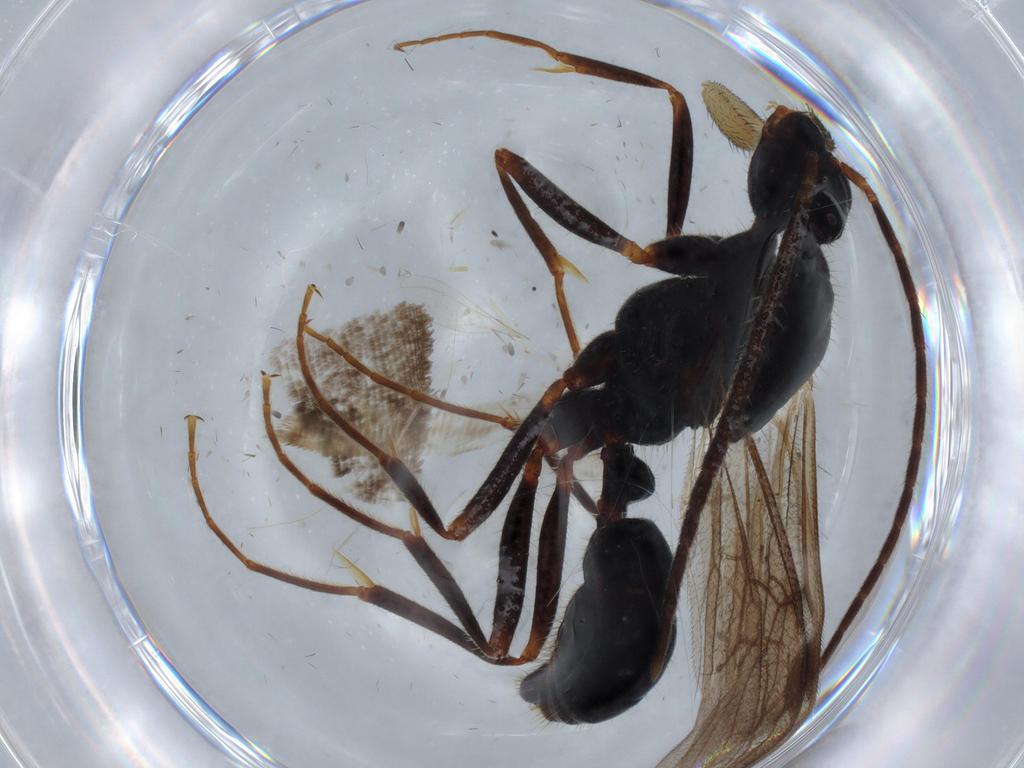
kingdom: Animalia
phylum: Arthropoda
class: Insecta
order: Hymenoptera
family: Formicidae
